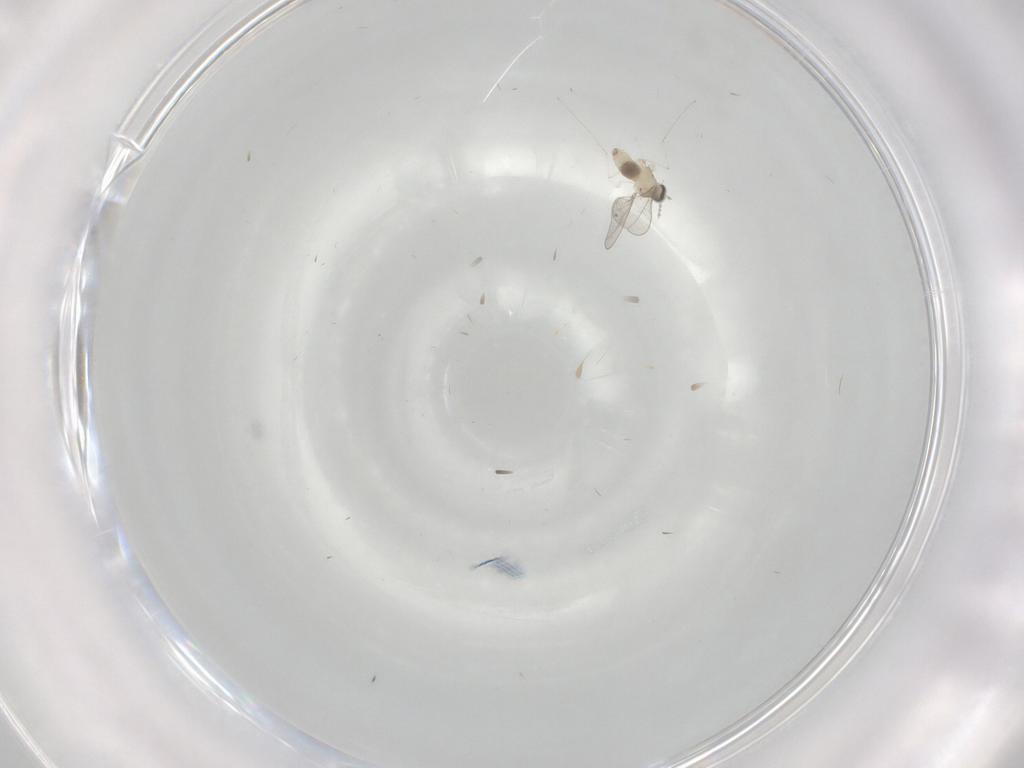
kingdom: Animalia
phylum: Arthropoda
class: Insecta
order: Diptera
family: Cecidomyiidae
